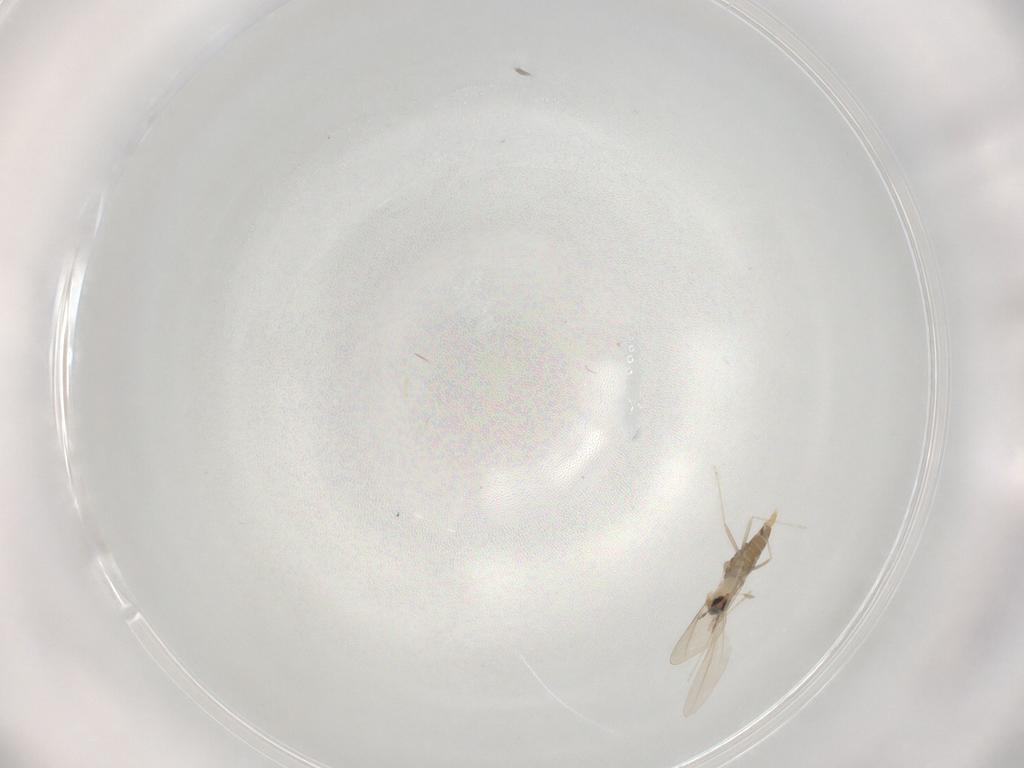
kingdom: Animalia
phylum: Arthropoda
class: Insecta
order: Diptera
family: Cecidomyiidae
